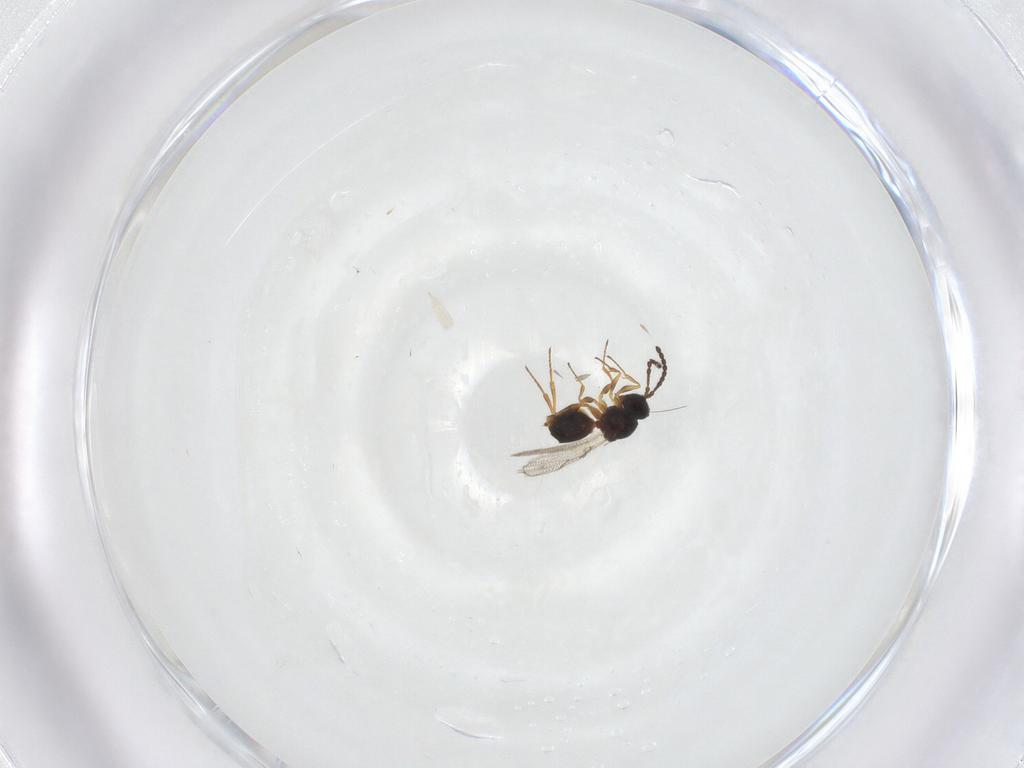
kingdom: Animalia
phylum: Arthropoda
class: Insecta
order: Hymenoptera
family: Figitidae
